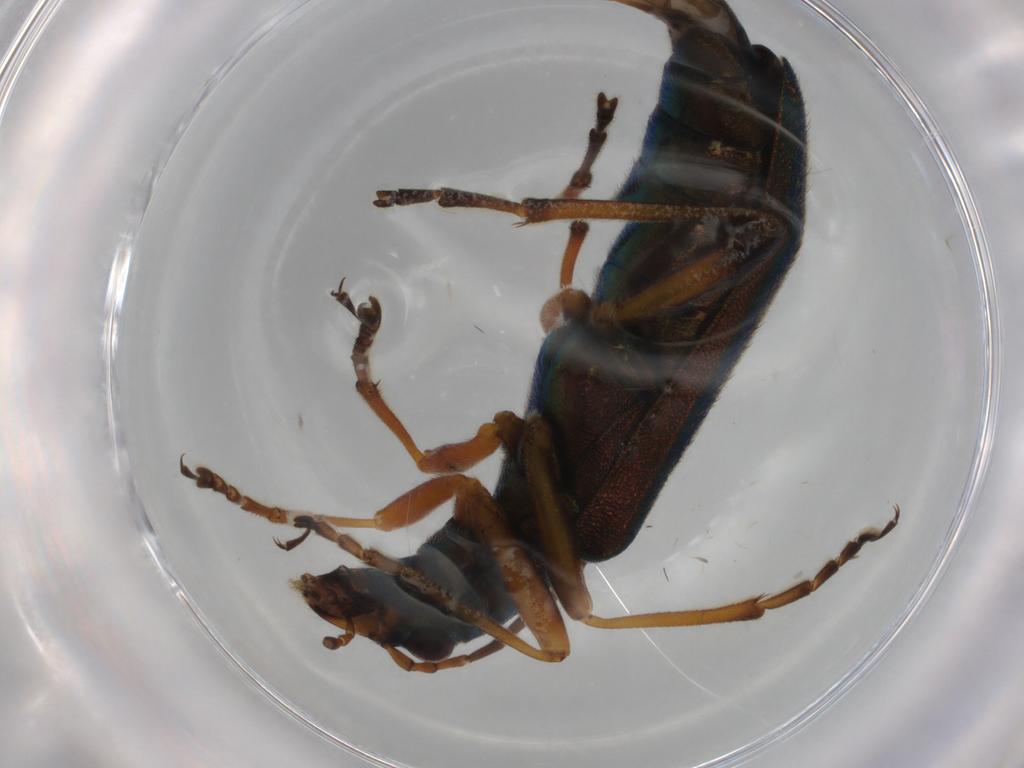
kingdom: Animalia
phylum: Arthropoda
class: Insecta
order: Coleoptera
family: Oedemeridae
